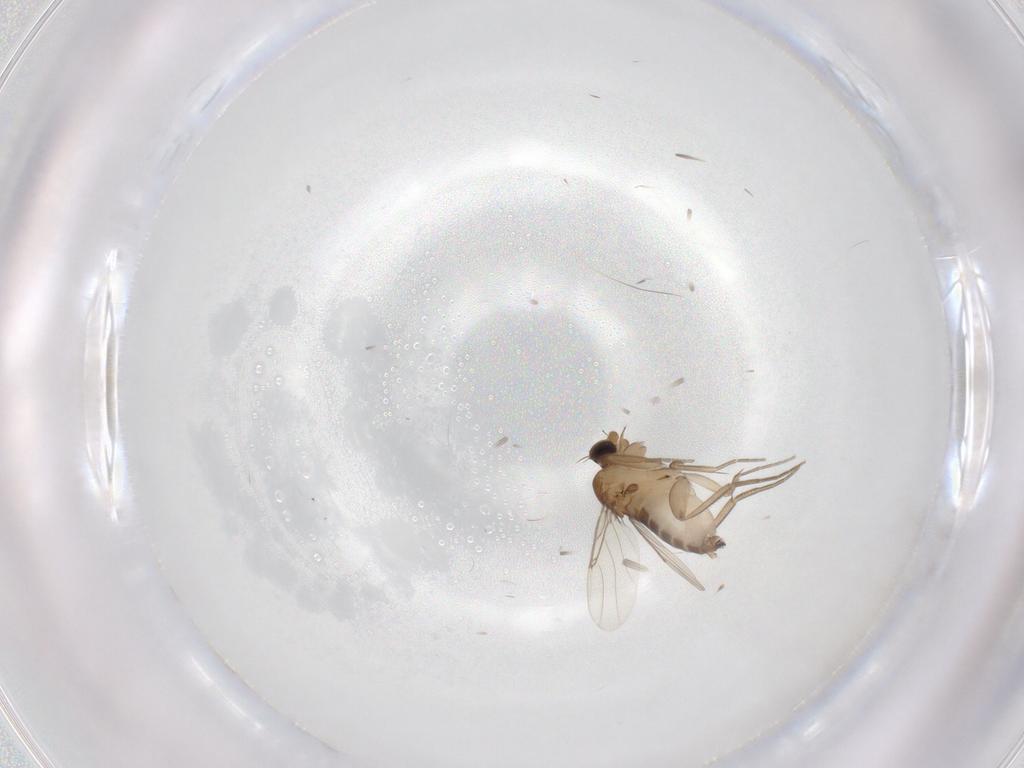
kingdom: Animalia
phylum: Arthropoda
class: Insecta
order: Diptera
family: Phoridae
